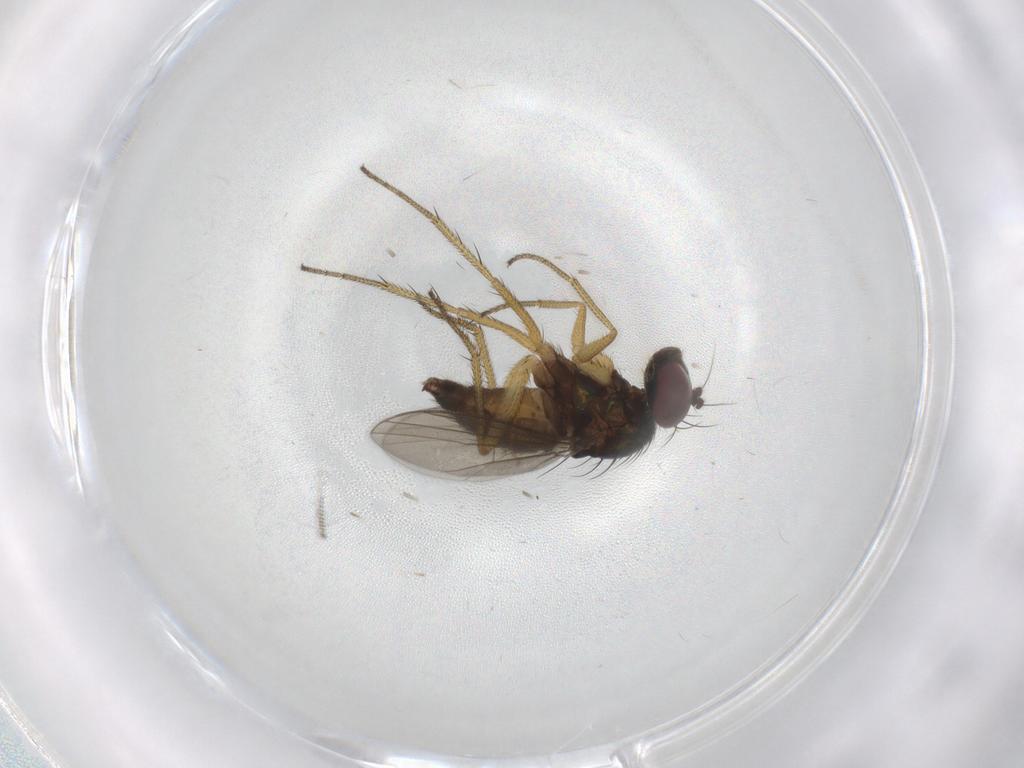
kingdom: Animalia
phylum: Arthropoda
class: Insecta
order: Diptera
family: Dolichopodidae
